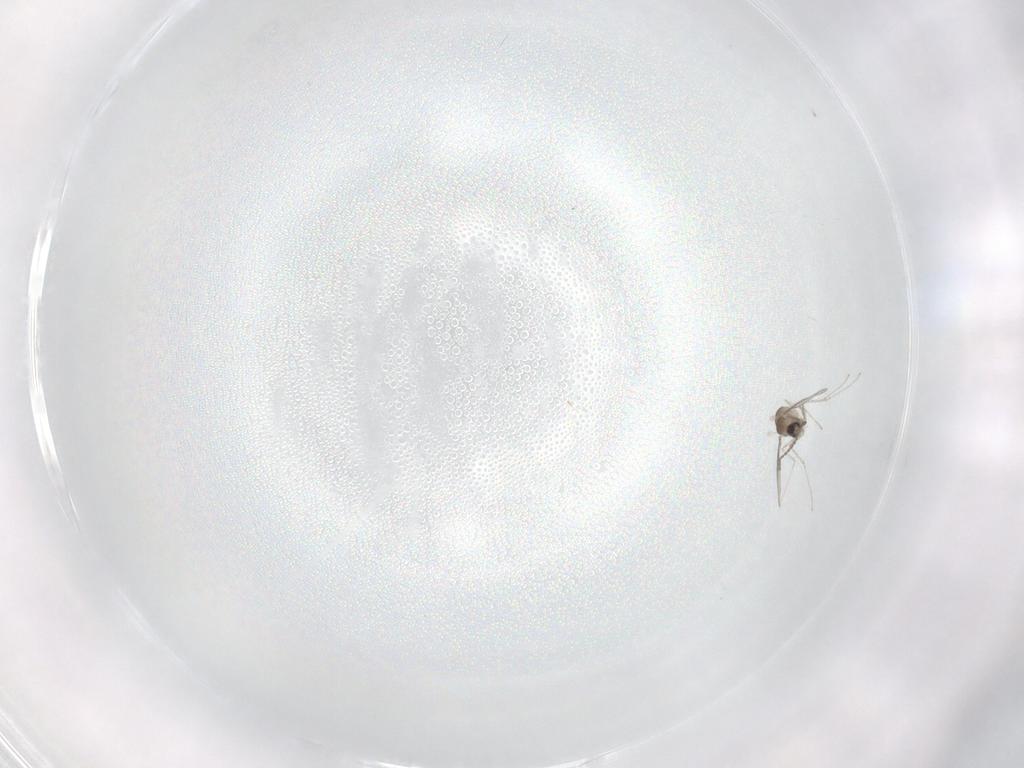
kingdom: Animalia
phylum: Arthropoda
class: Insecta
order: Diptera
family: Cecidomyiidae
